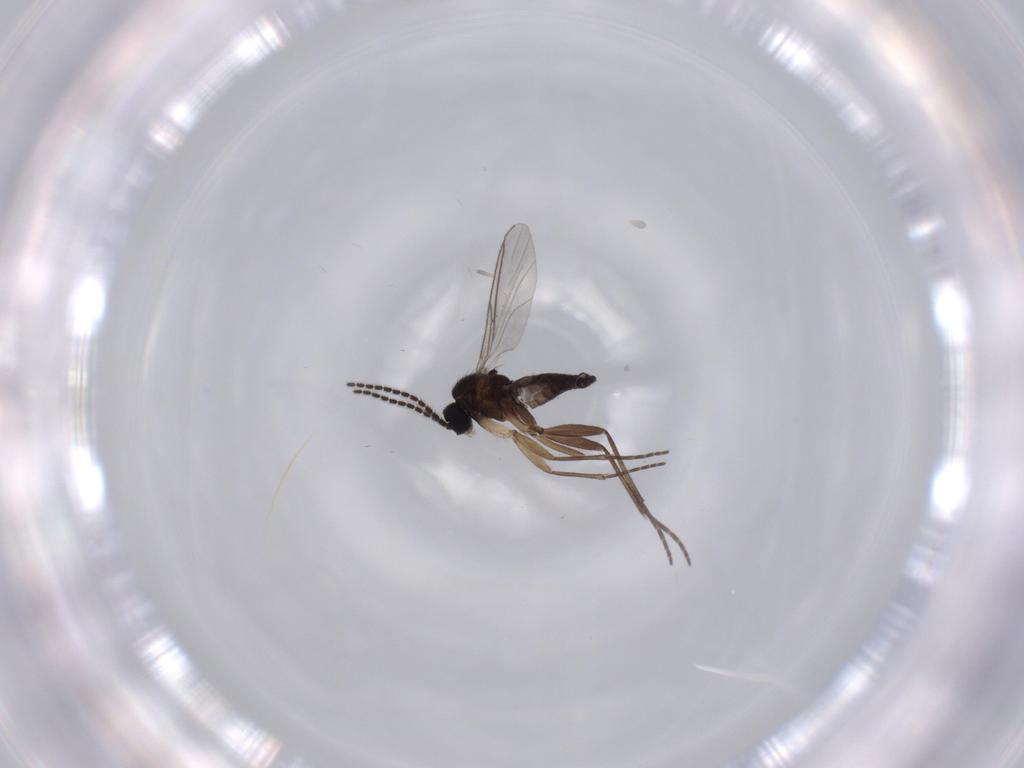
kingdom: Animalia
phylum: Arthropoda
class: Insecta
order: Diptera
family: Sciaridae
